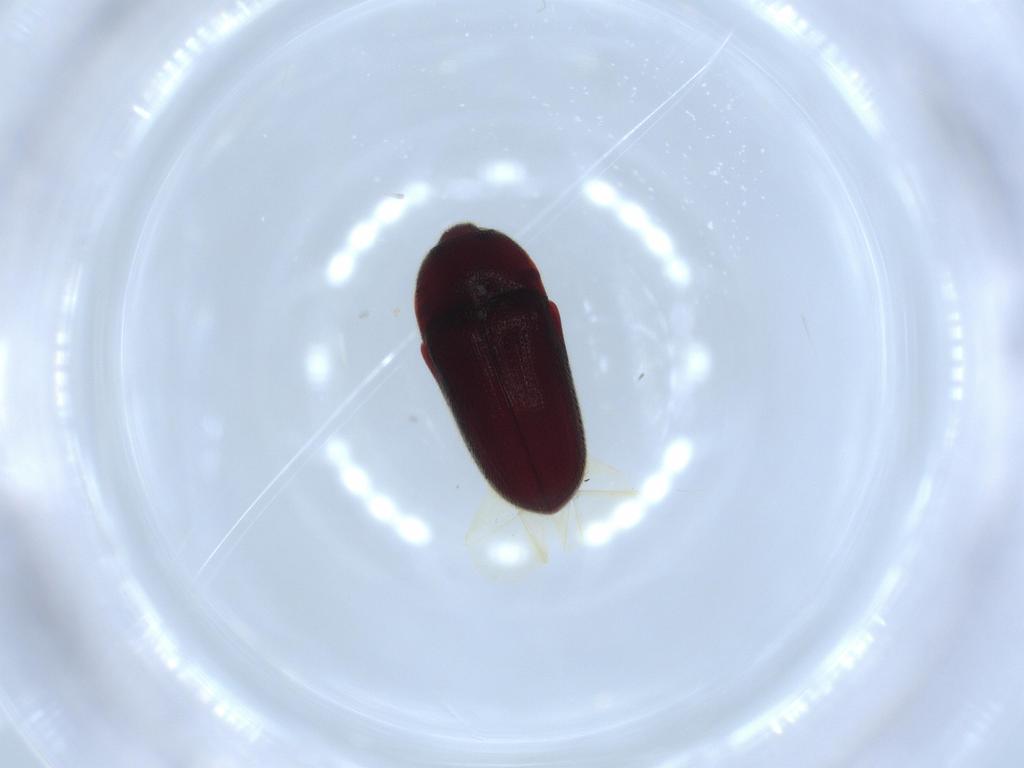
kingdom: Animalia
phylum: Arthropoda
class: Insecta
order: Coleoptera
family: Throscidae
